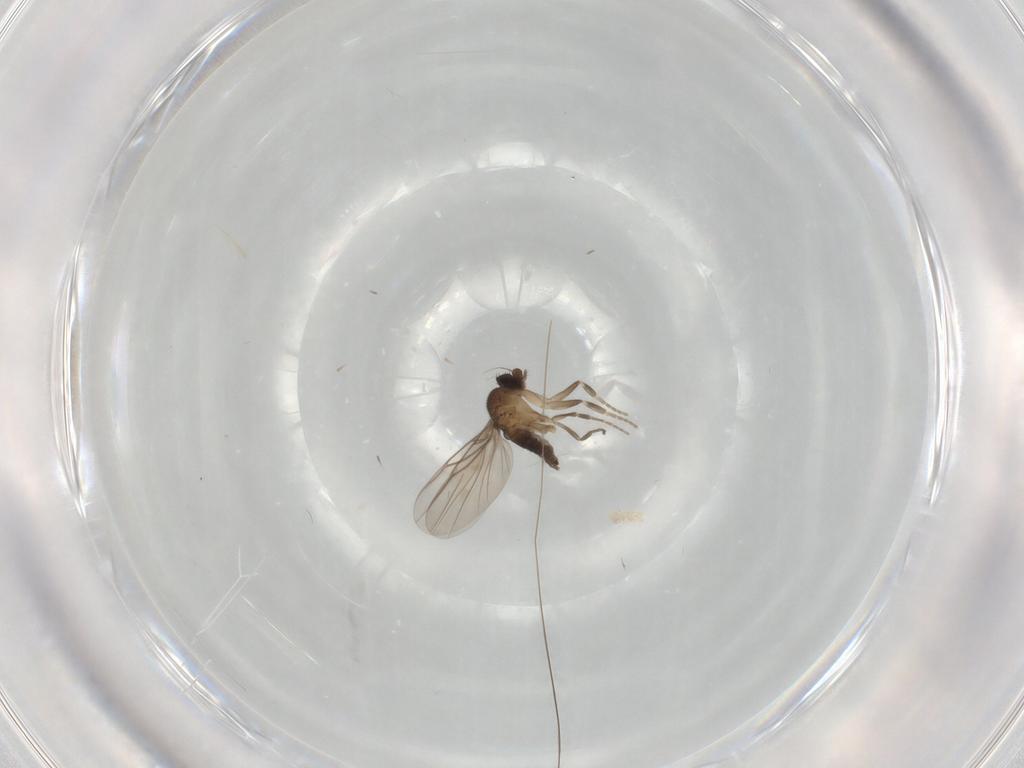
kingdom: Animalia
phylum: Arthropoda
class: Insecta
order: Diptera
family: Phoridae
